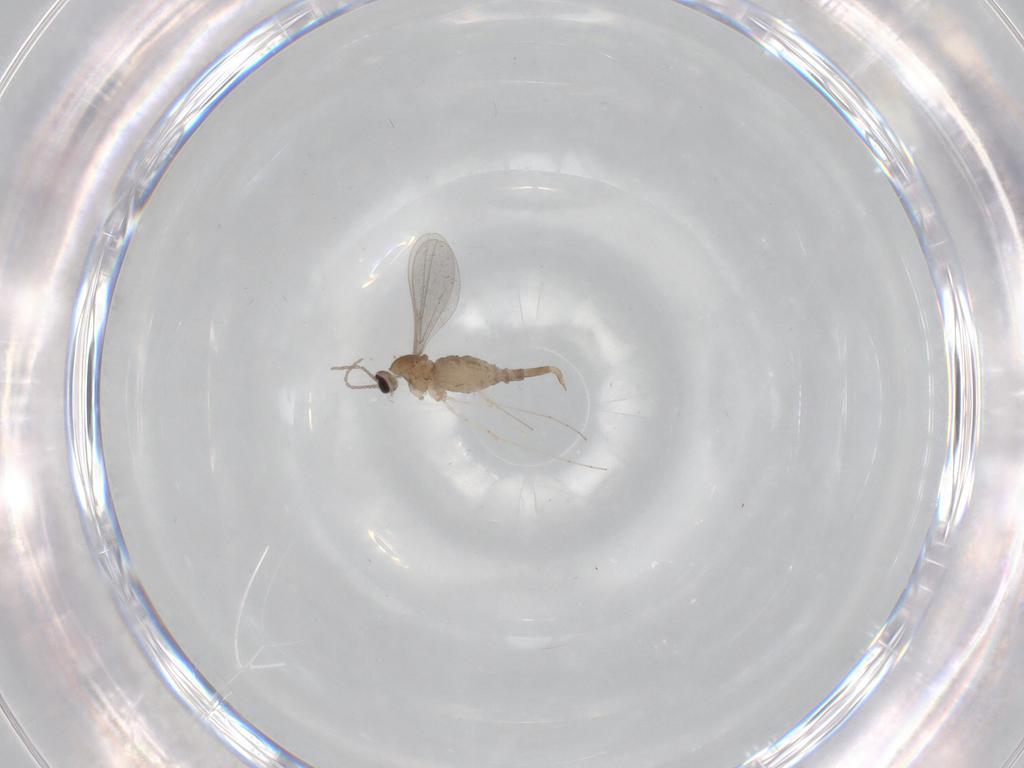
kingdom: Animalia
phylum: Arthropoda
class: Insecta
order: Diptera
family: Cecidomyiidae
